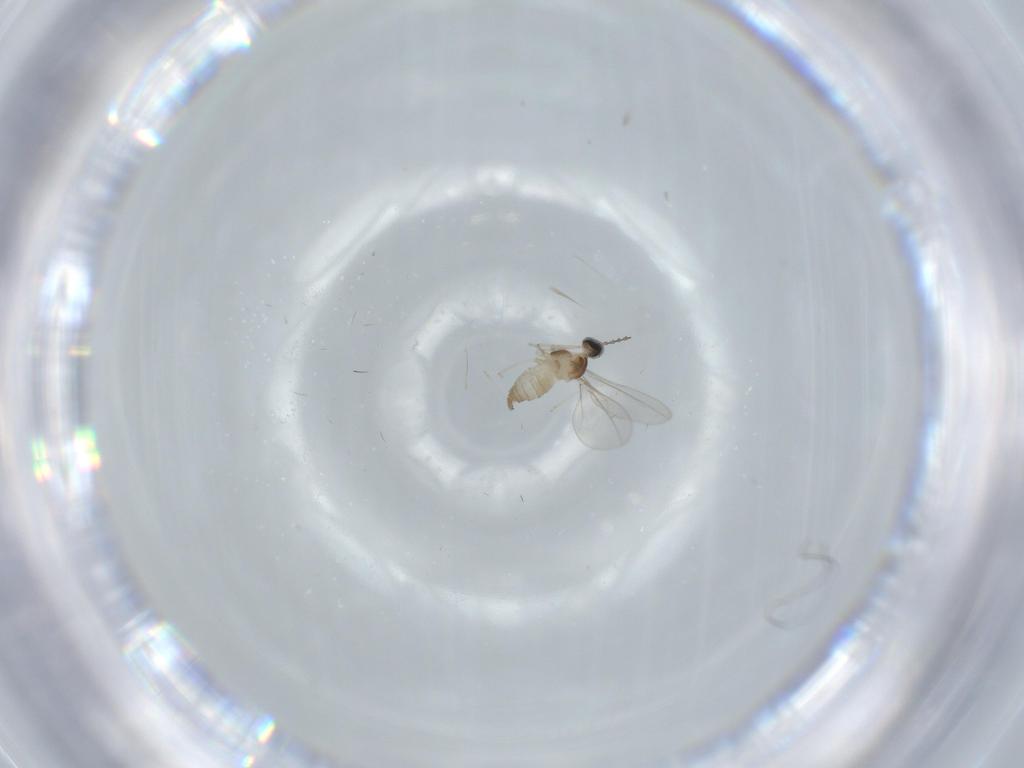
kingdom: Animalia
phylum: Arthropoda
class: Insecta
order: Diptera
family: Cecidomyiidae
